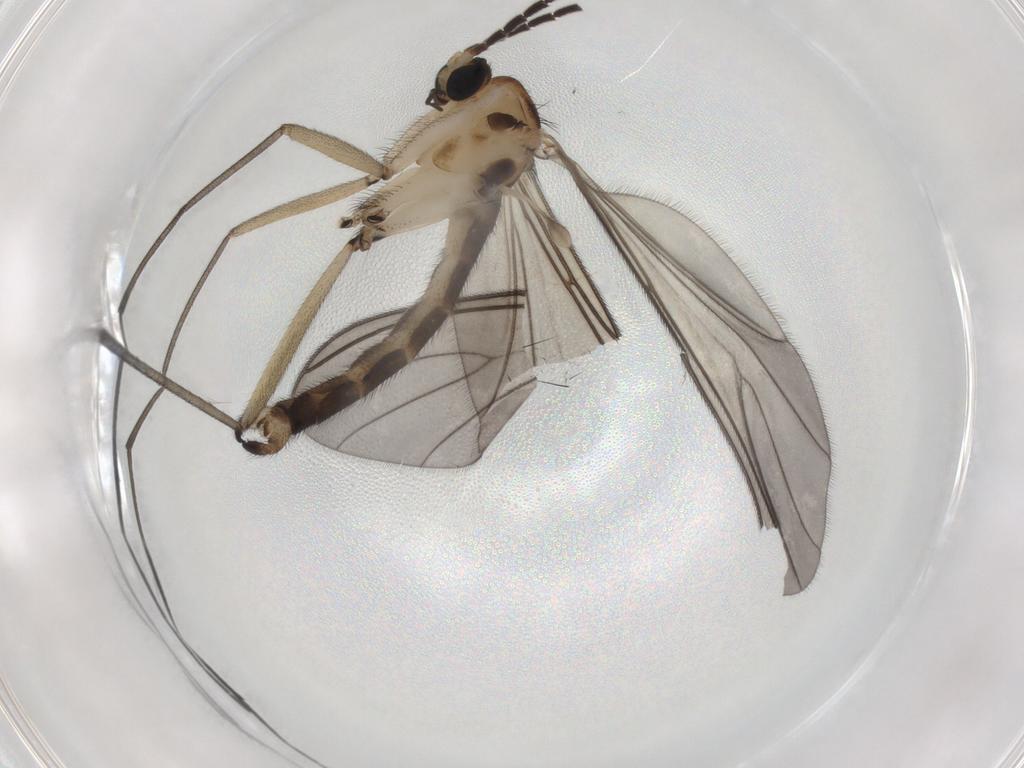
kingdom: Animalia
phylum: Arthropoda
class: Insecta
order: Diptera
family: Sciaridae
